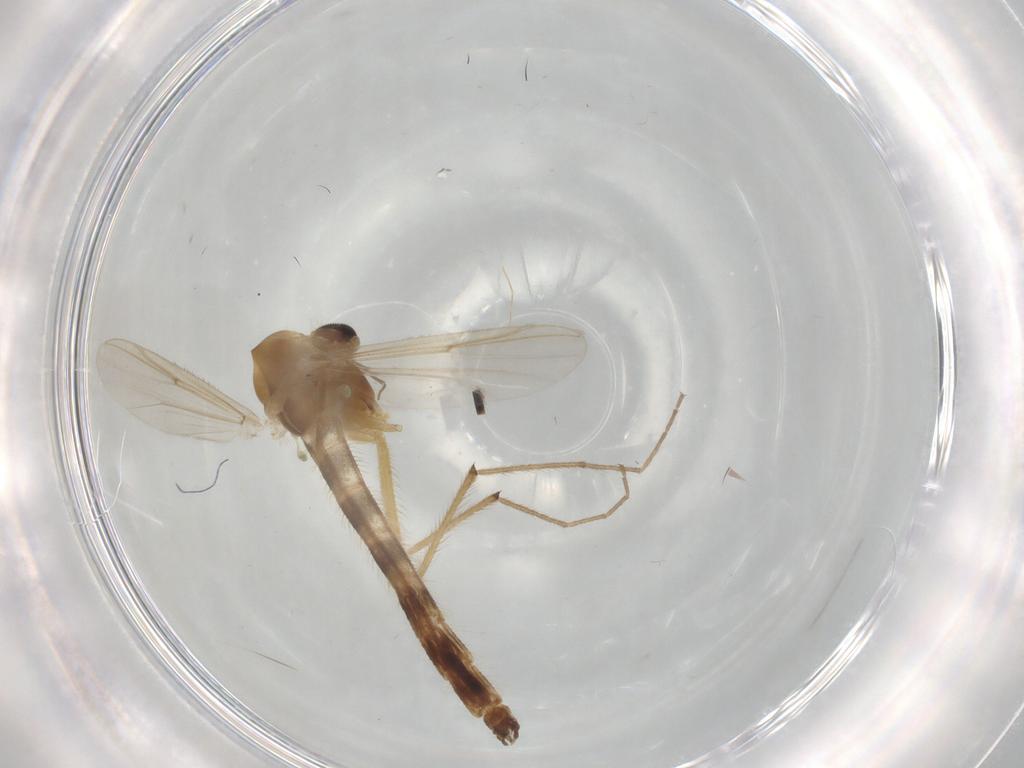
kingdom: Animalia
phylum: Arthropoda
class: Insecta
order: Diptera
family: Chironomidae
